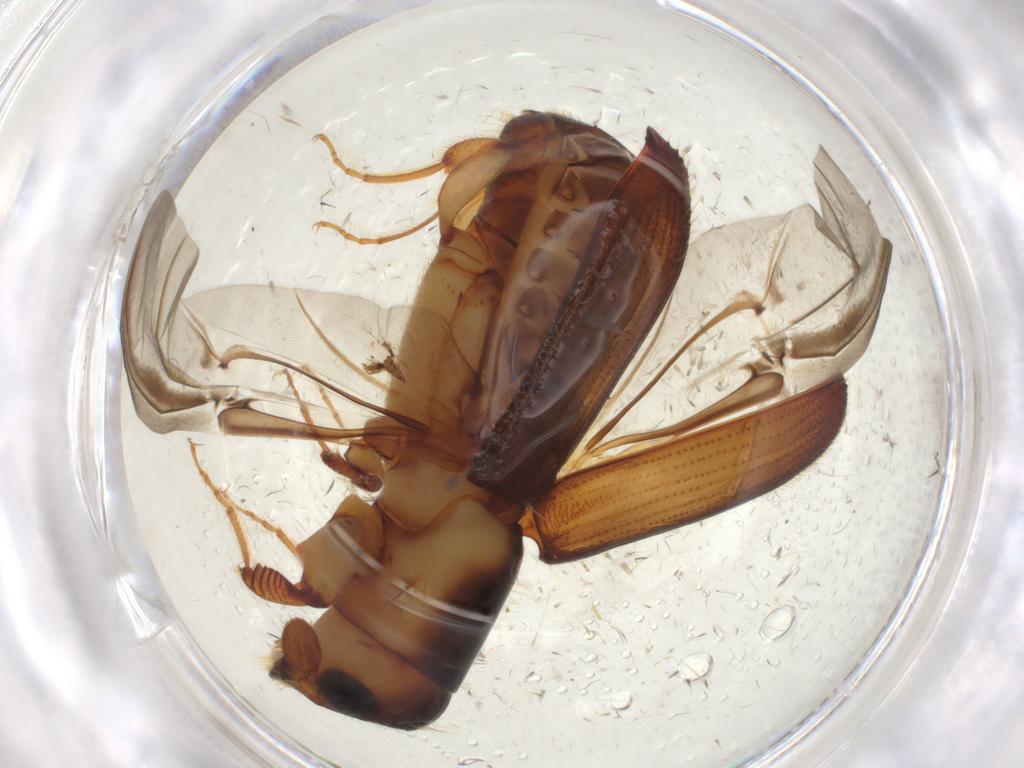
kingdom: Animalia
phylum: Arthropoda
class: Insecta
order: Coleoptera
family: Curculionidae
